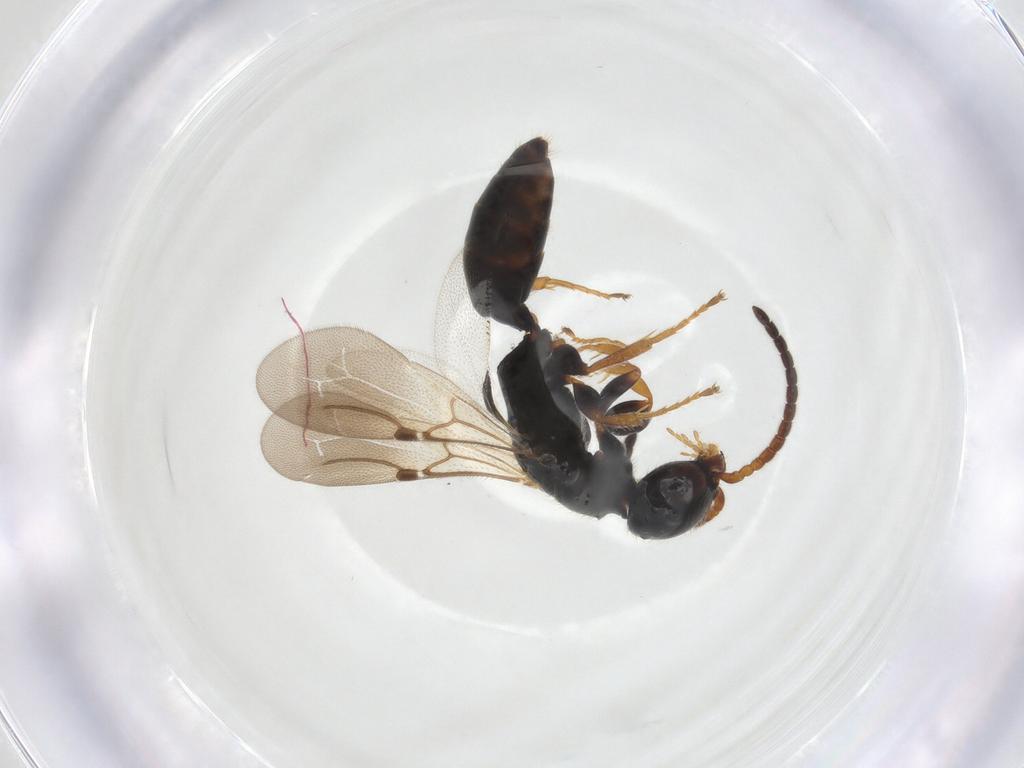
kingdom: Animalia
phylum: Arthropoda
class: Insecta
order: Hymenoptera
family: Bethylidae
